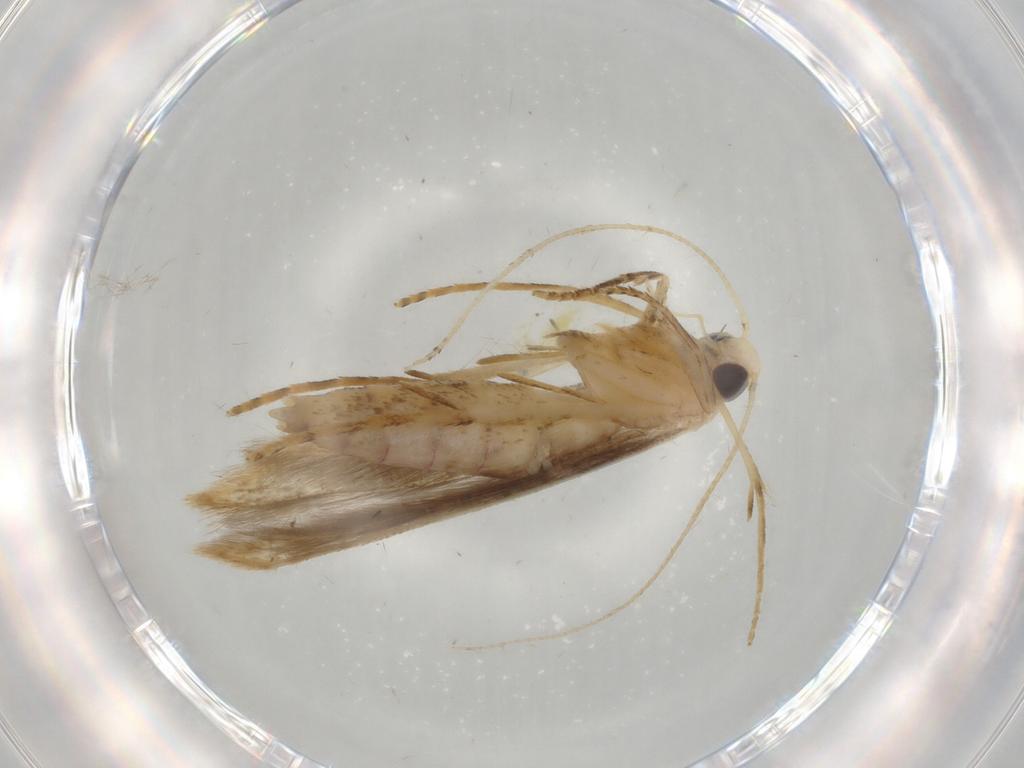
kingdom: Animalia
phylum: Arthropoda
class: Insecta
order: Lepidoptera
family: Batrachedridae
